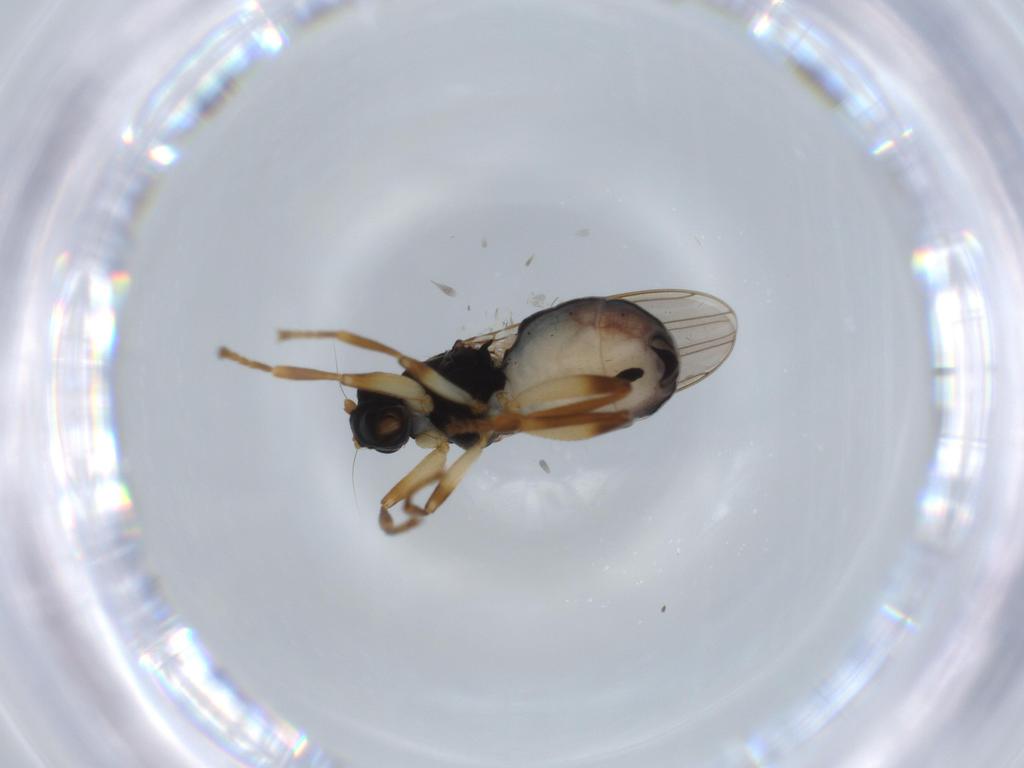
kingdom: Animalia
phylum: Arthropoda
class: Insecta
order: Diptera
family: Sphaeroceridae
